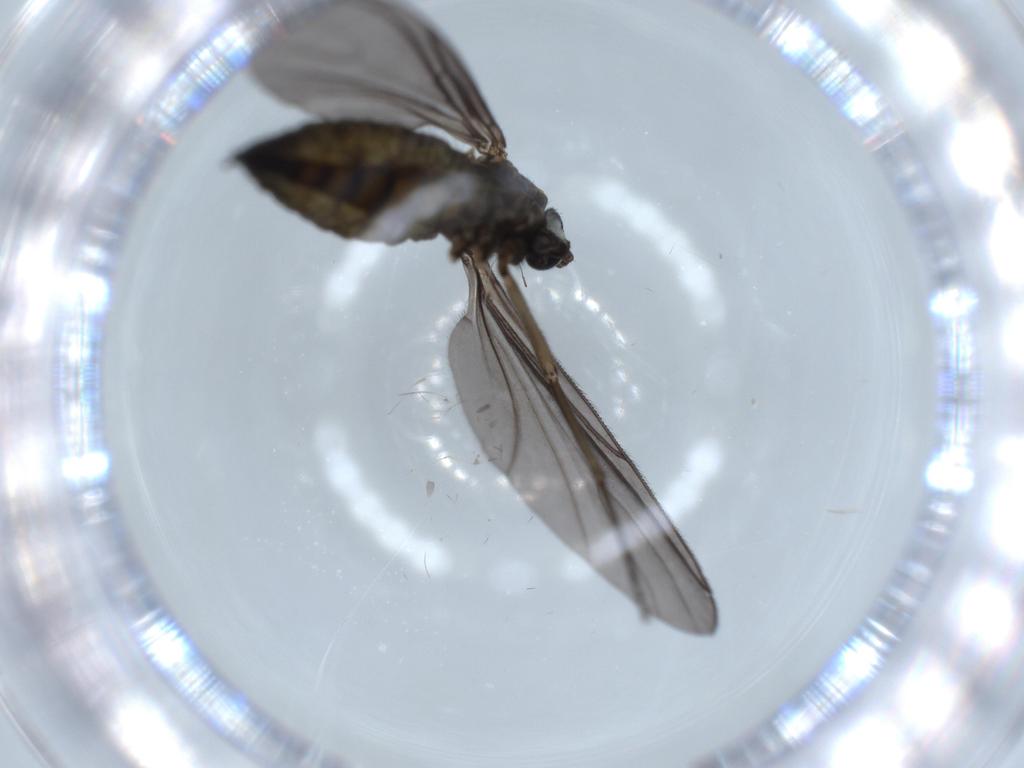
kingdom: Animalia
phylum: Arthropoda
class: Insecta
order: Diptera
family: Sciaridae
